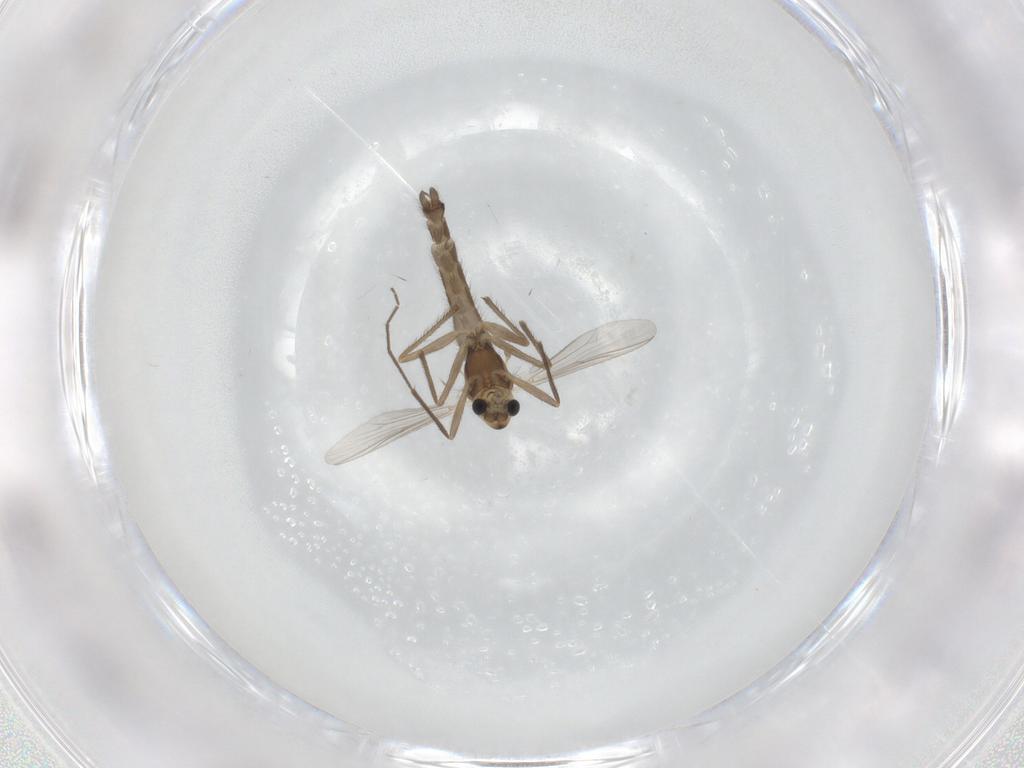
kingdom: Animalia
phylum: Arthropoda
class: Insecta
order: Diptera
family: Chironomidae
